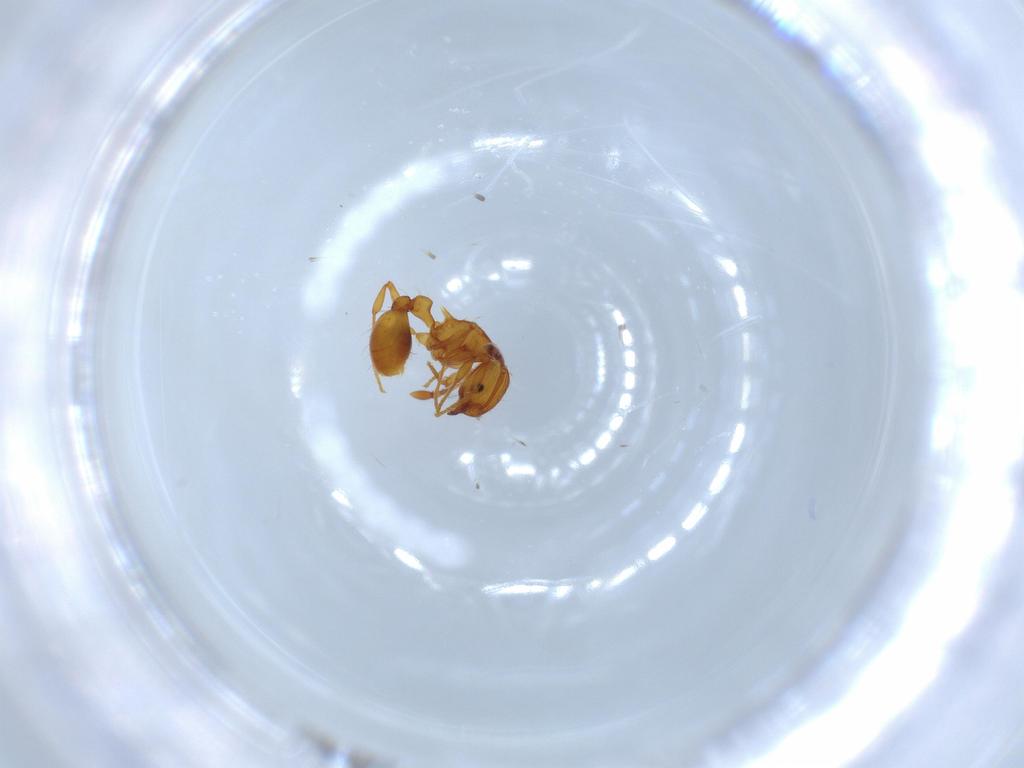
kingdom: Animalia
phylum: Arthropoda
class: Insecta
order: Hymenoptera
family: Formicidae
